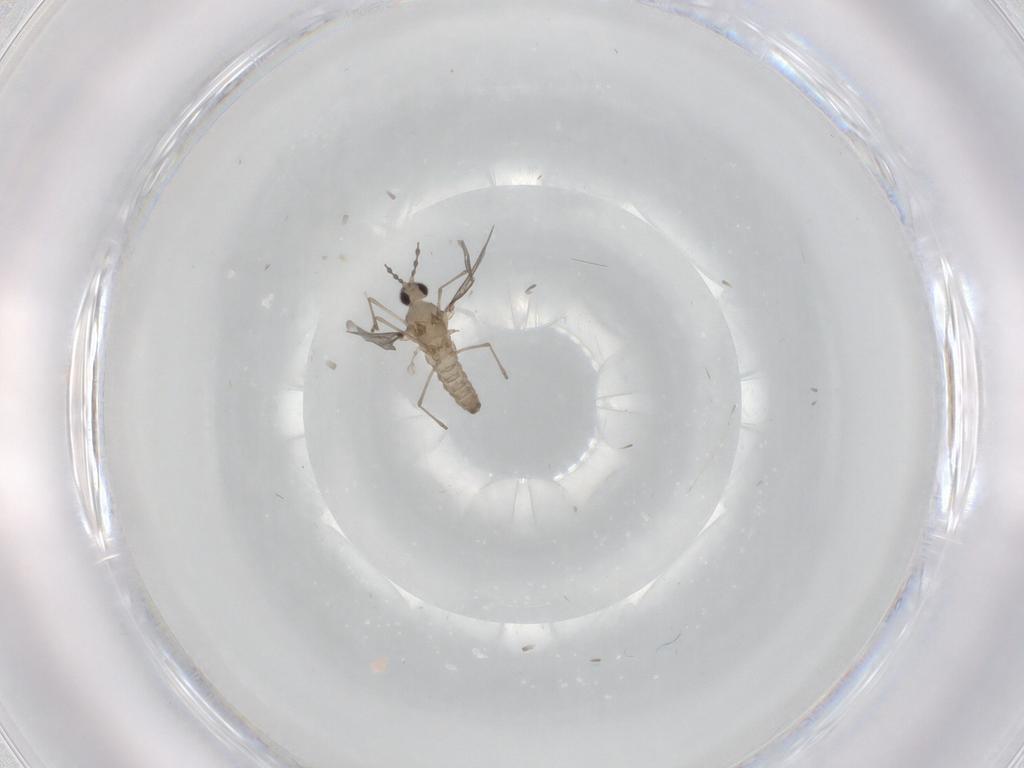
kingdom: Animalia
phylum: Arthropoda
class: Insecta
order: Diptera
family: Cecidomyiidae
